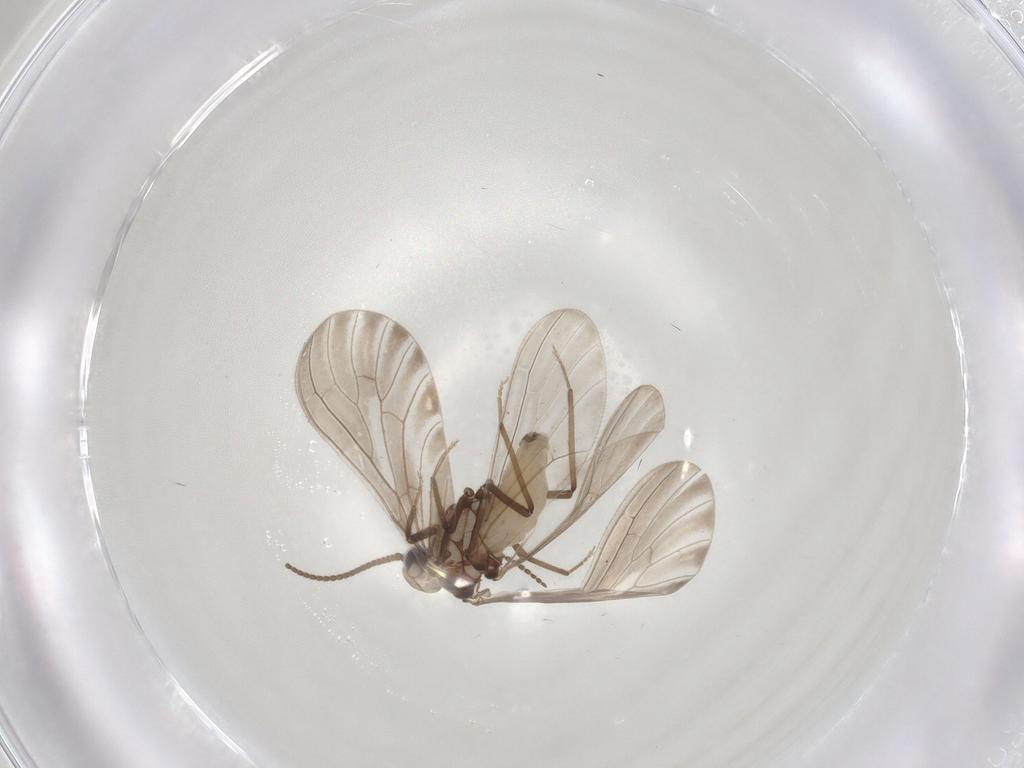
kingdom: Animalia
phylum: Arthropoda
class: Insecta
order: Neuroptera
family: Coniopterygidae
